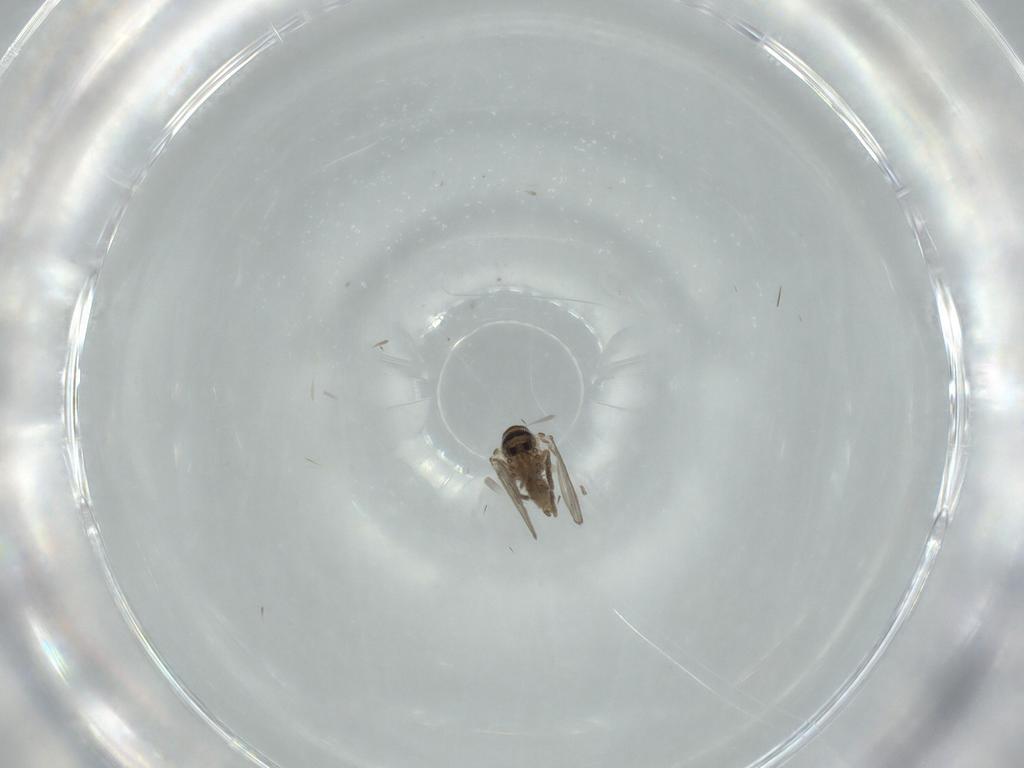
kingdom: Animalia
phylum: Arthropoda
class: Insecta
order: Diptera
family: Psychodidae
